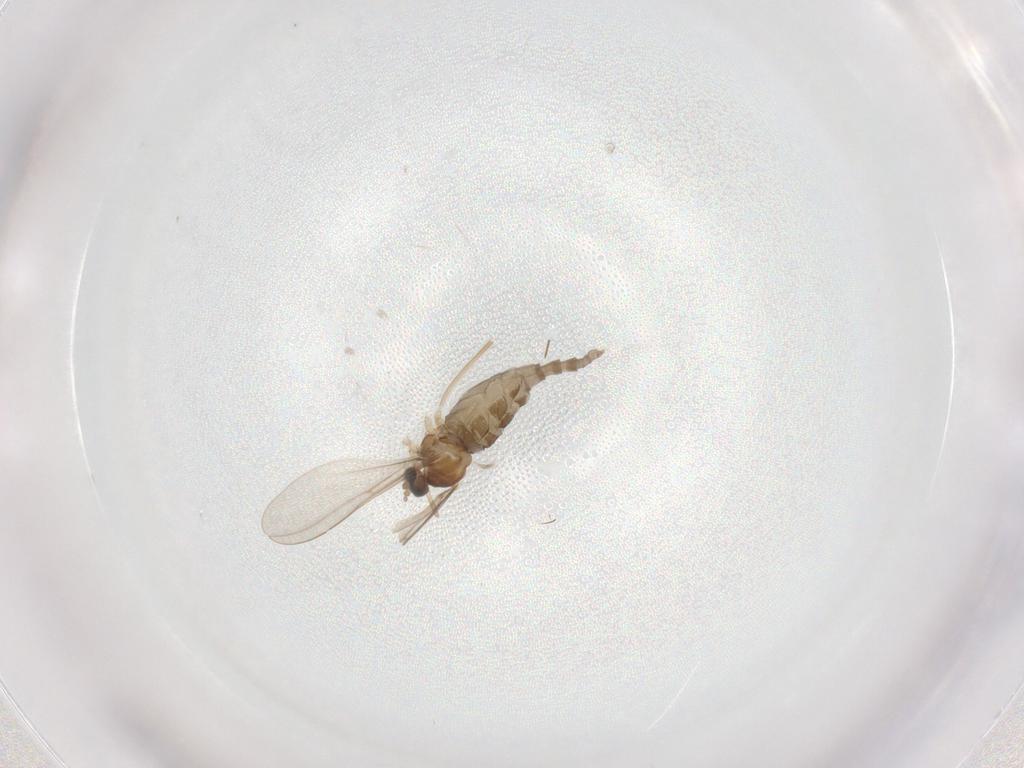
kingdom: Animalia
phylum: Arthropoda
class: Insecta
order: Diptera
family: Cecidomyiidae
